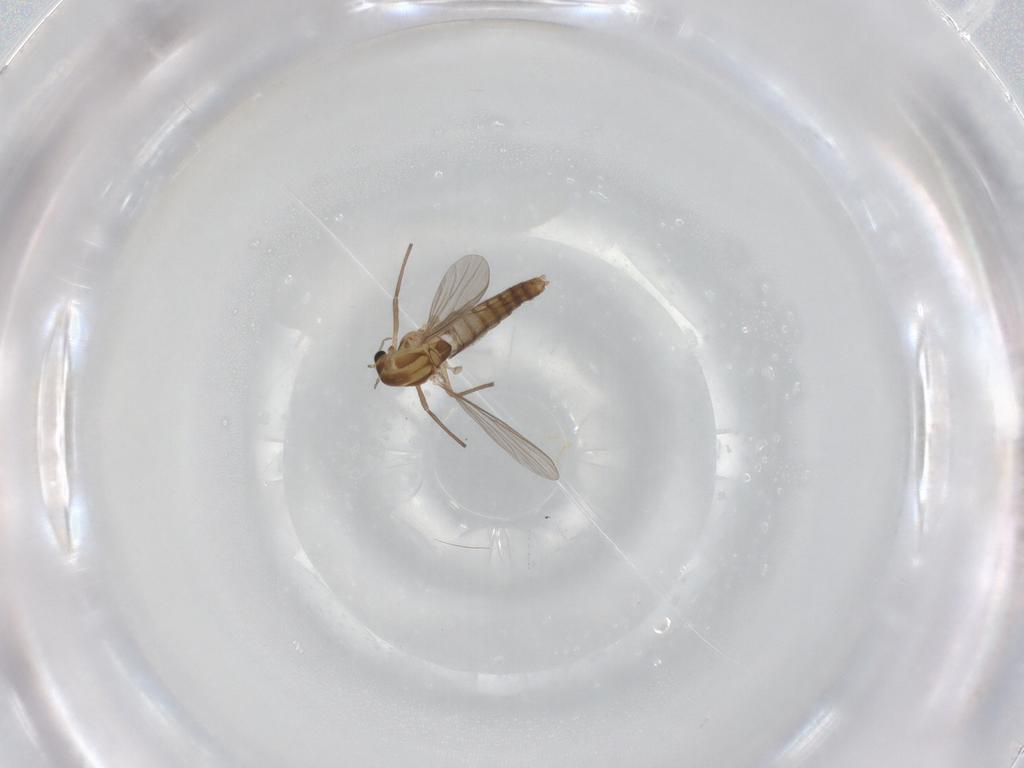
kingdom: Animalia
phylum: Arthropoda
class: Insecta
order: Diptera
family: Chironomidae
